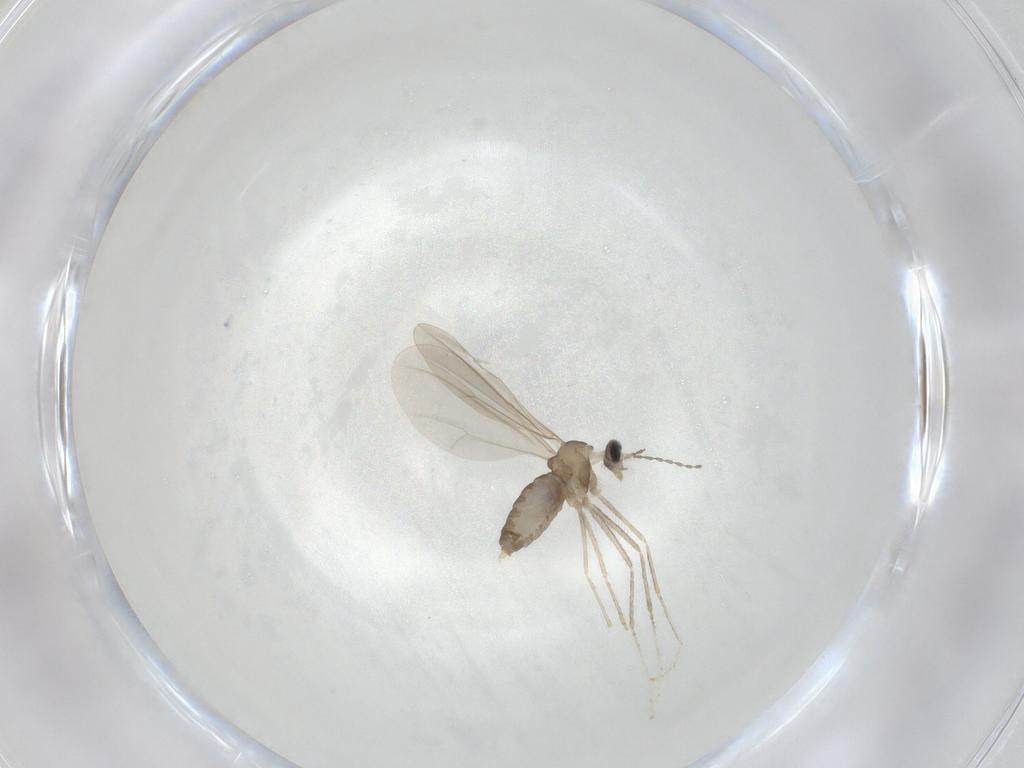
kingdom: Animalia
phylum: Arthropoda
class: Insecta
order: Diptera
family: Cecidomyiidae
